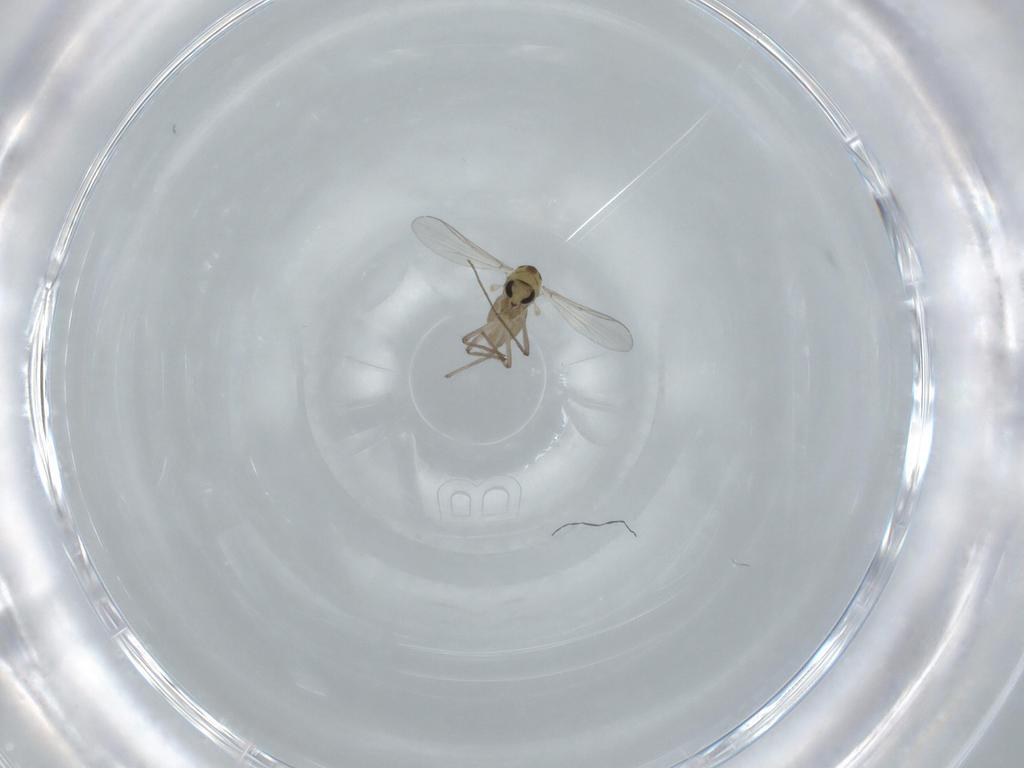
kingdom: Animalia
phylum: Arthropoda
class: Insecta
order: Diptera
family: Chironomidae
